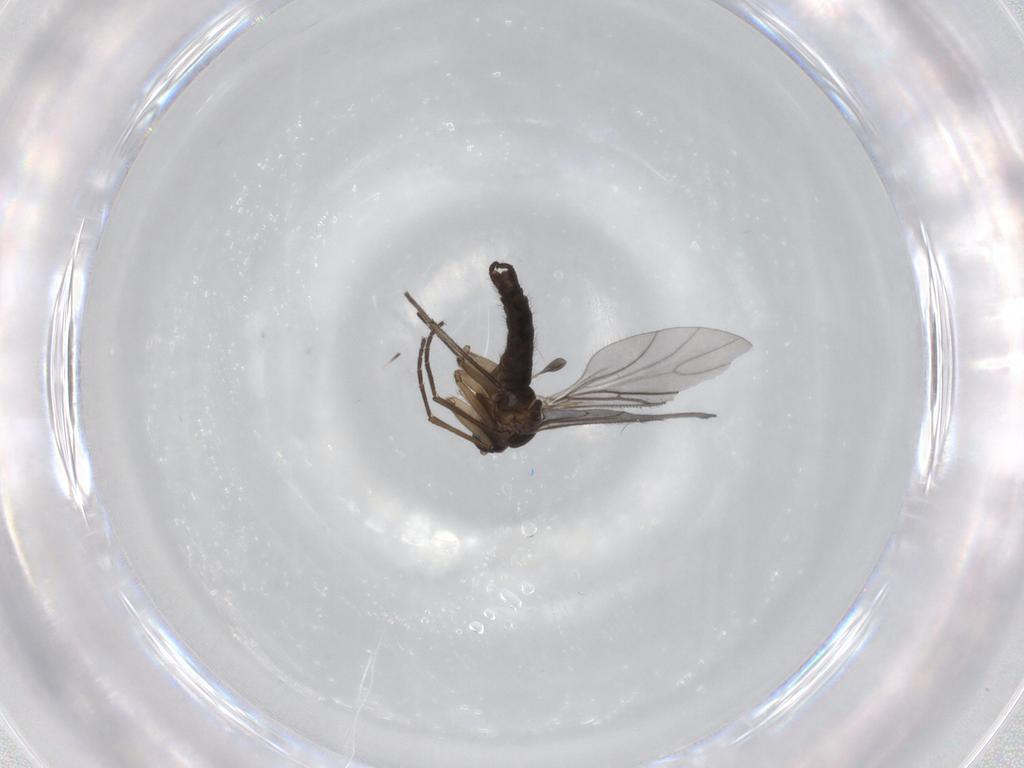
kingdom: Animalia
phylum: Arthropoda
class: Insecta
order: Diptera
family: Sciaridae
